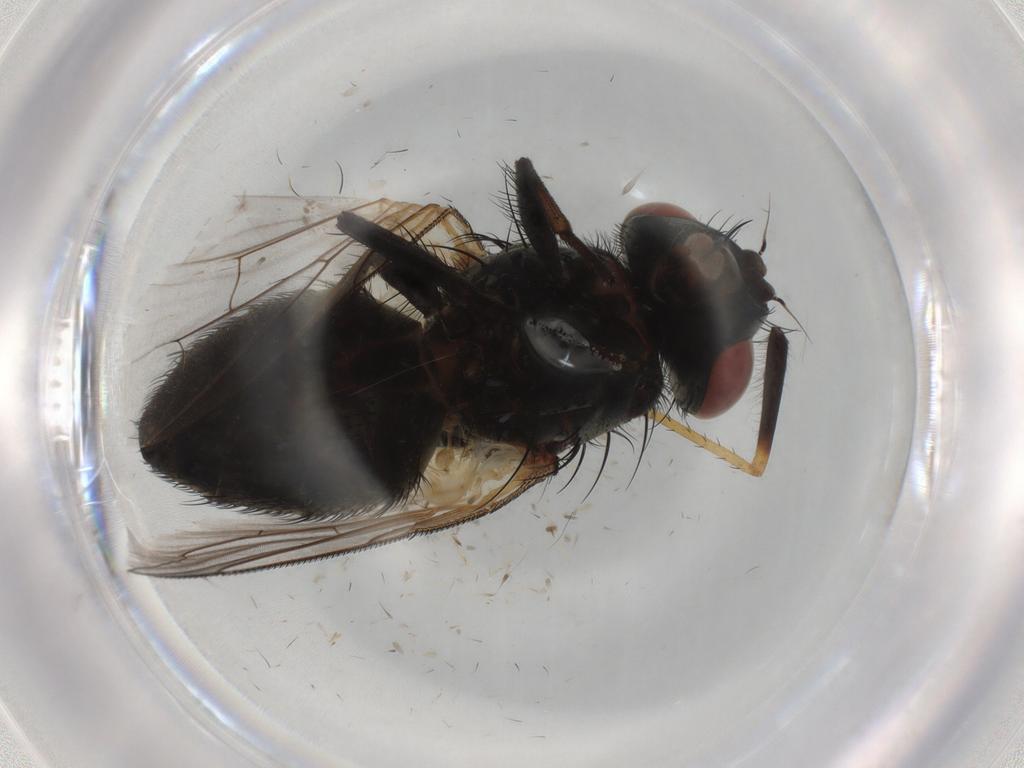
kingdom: Animalia
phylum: Arthropoda
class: Insecta
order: Diptera
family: Sarcophagidae
